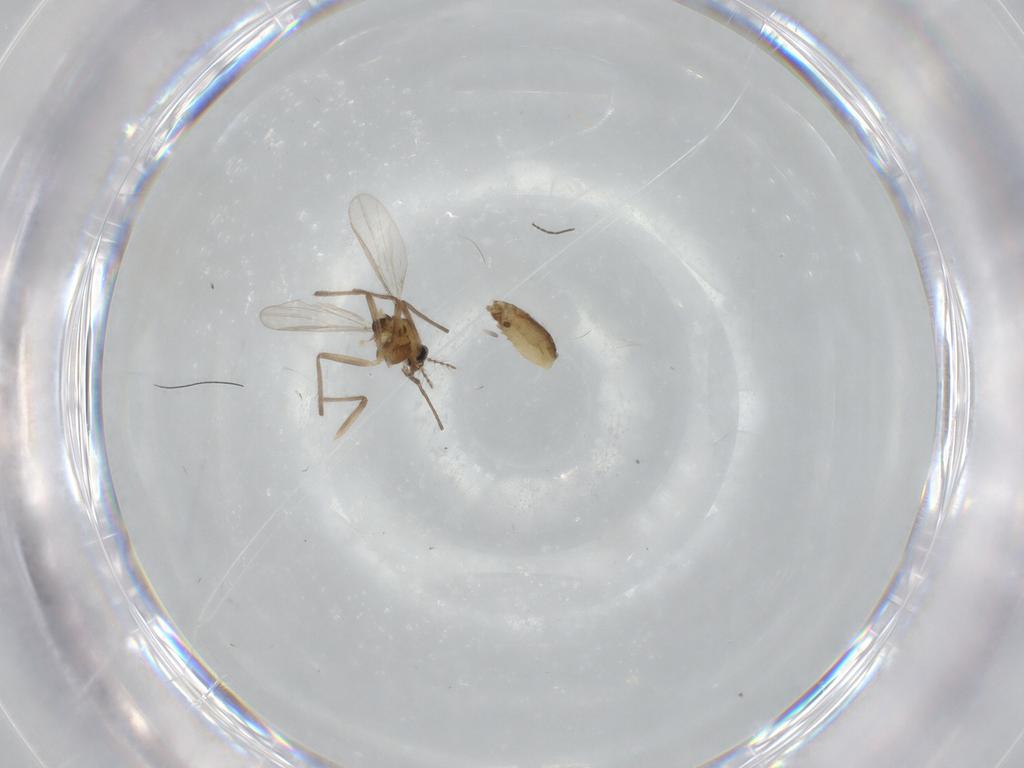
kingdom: Animalia
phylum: Arthropoda
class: Insecta
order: Diptera
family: Chironomidae
